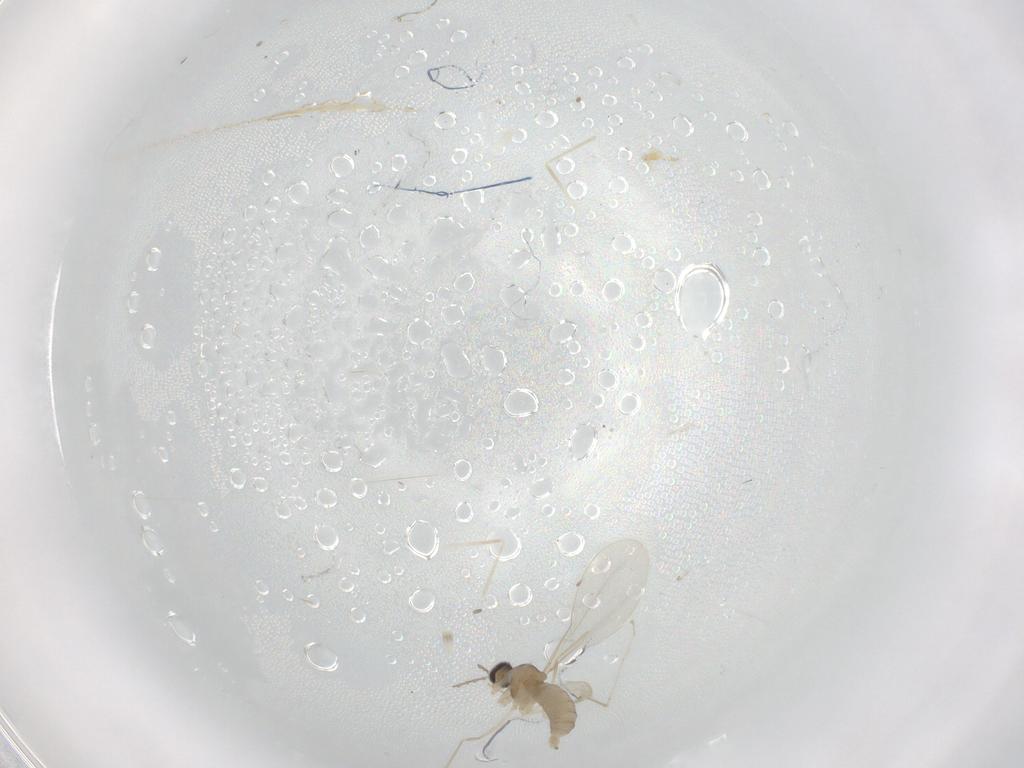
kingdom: Animalia
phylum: Arthropoda
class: Insecta
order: Diptera
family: Cecidomyiidae
